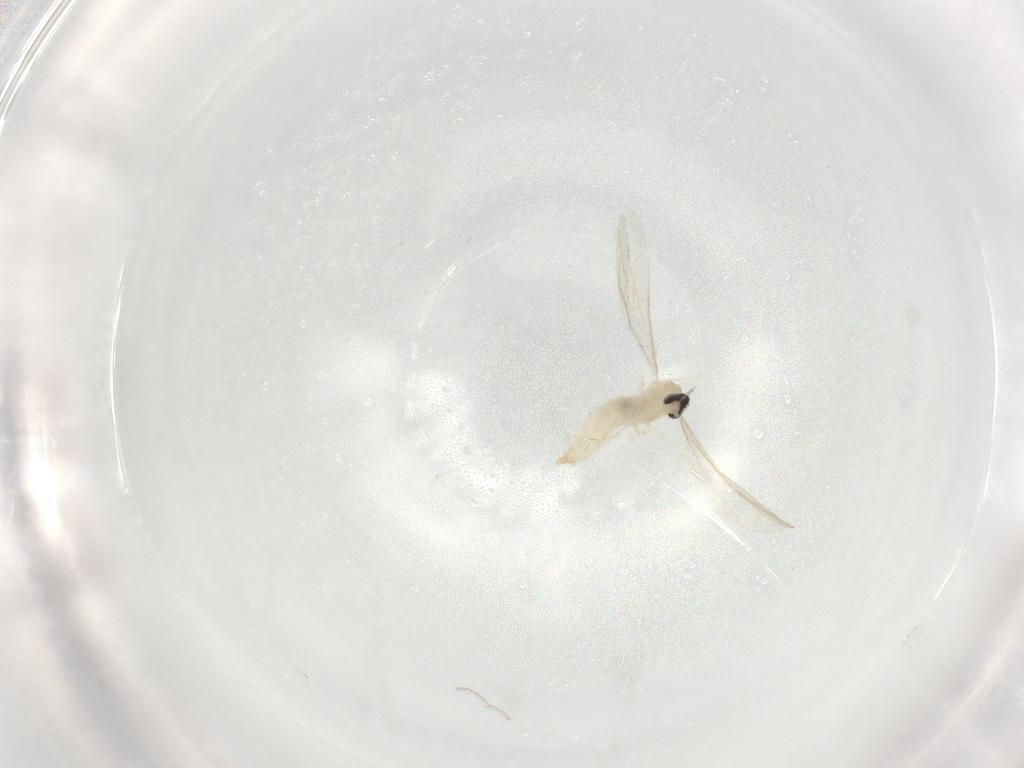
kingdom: Animalia
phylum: Arthropoda
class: Insecta
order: Diptera
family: Cecidomyiidae
